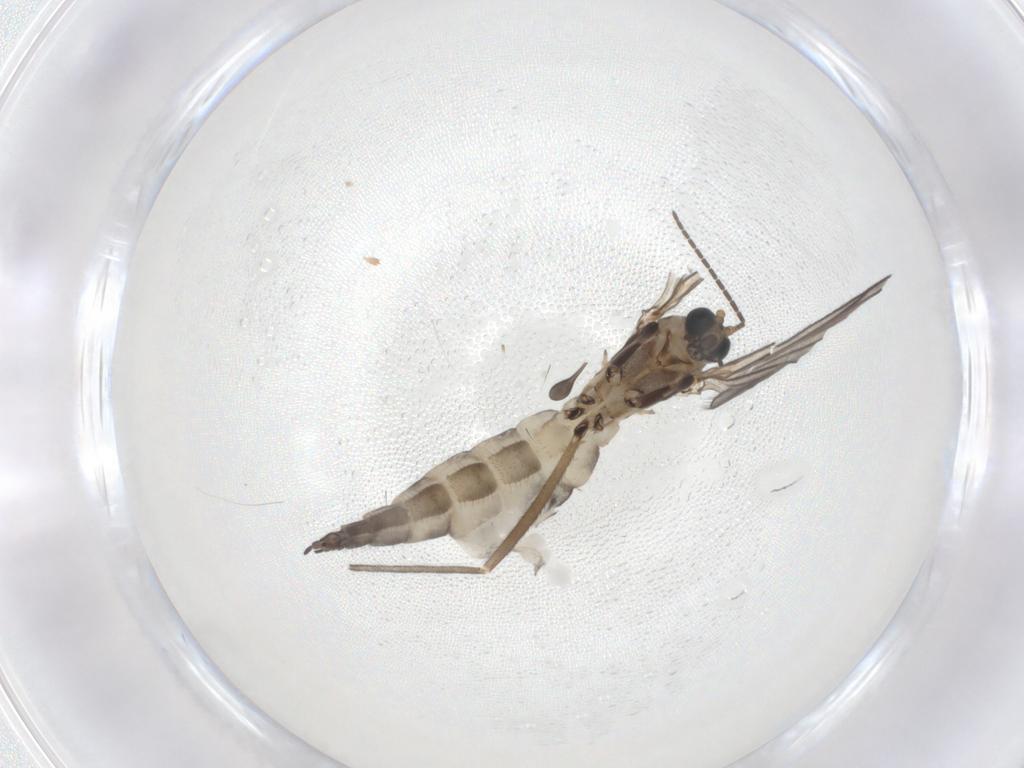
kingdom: Animalia
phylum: Arthropoda
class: Insecta
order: Diptera
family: Sciaridae
